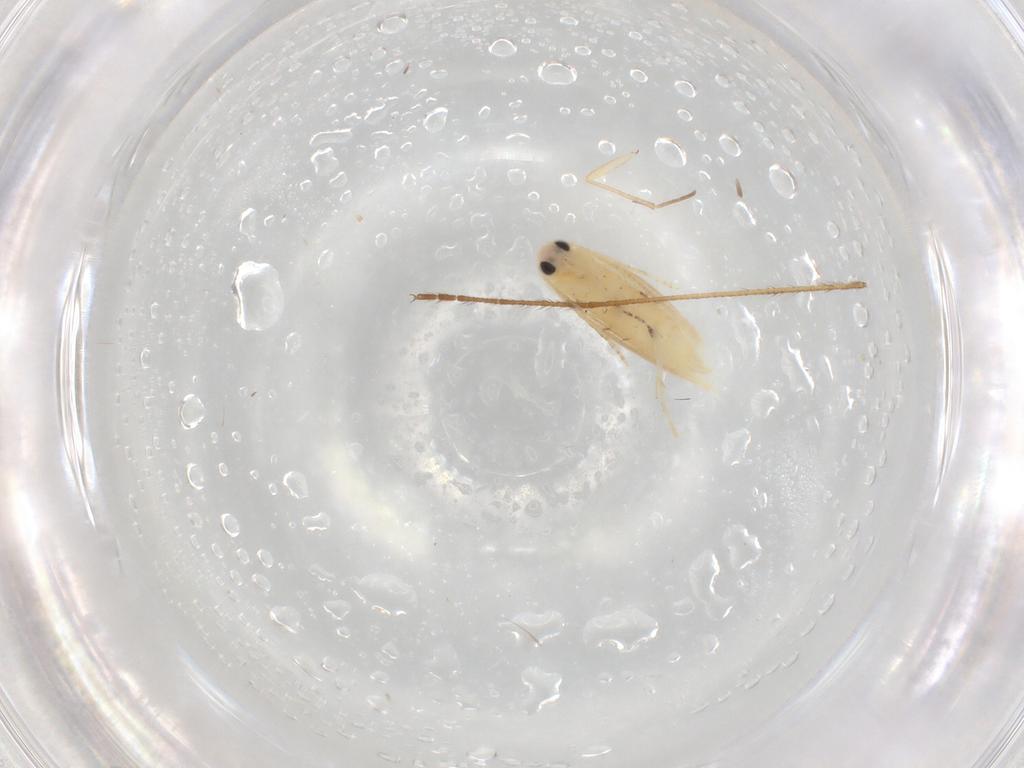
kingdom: Animalia
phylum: Arthropoda
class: Insecta
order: Lepidoptera
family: Geometridae
